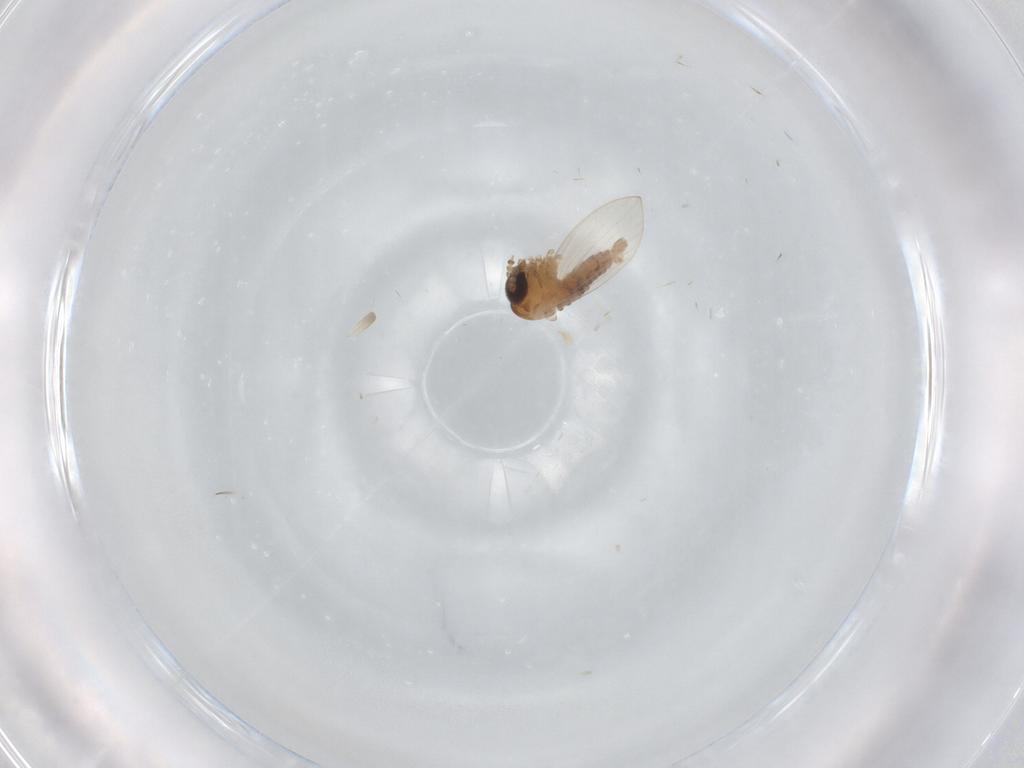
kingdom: Animalia
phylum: Arthropoda
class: Insecta
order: Diptera
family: Psychodidae
